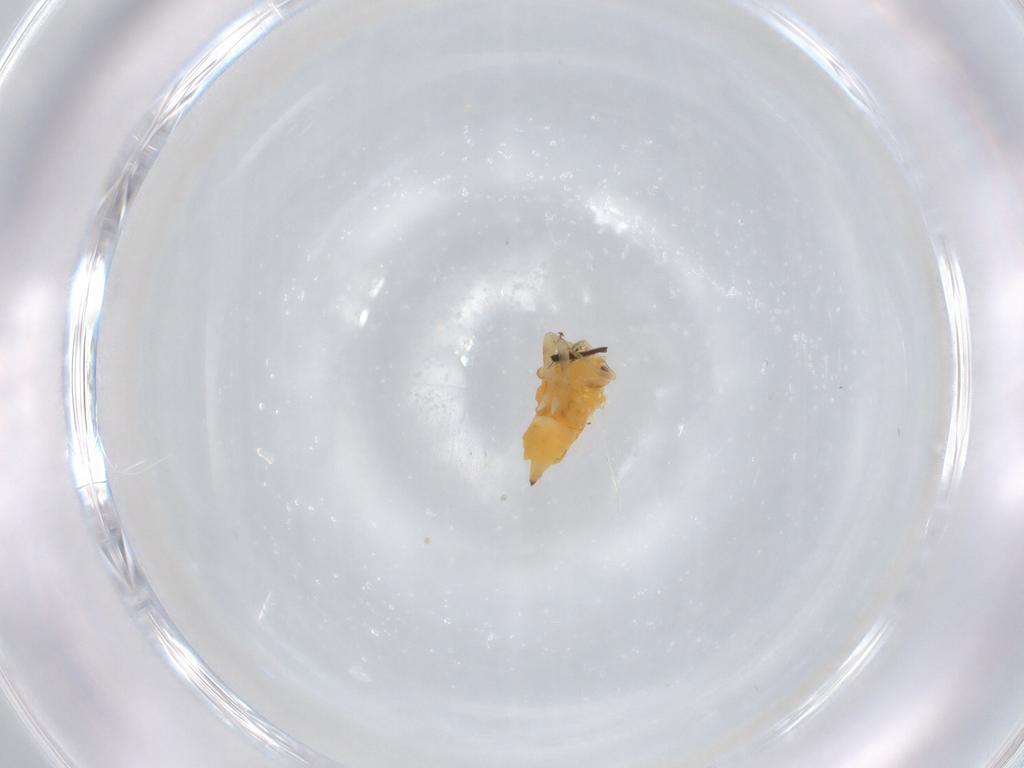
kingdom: Animalia
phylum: Arthropoda
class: Insecta
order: Hemiptera
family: Psyllidae
